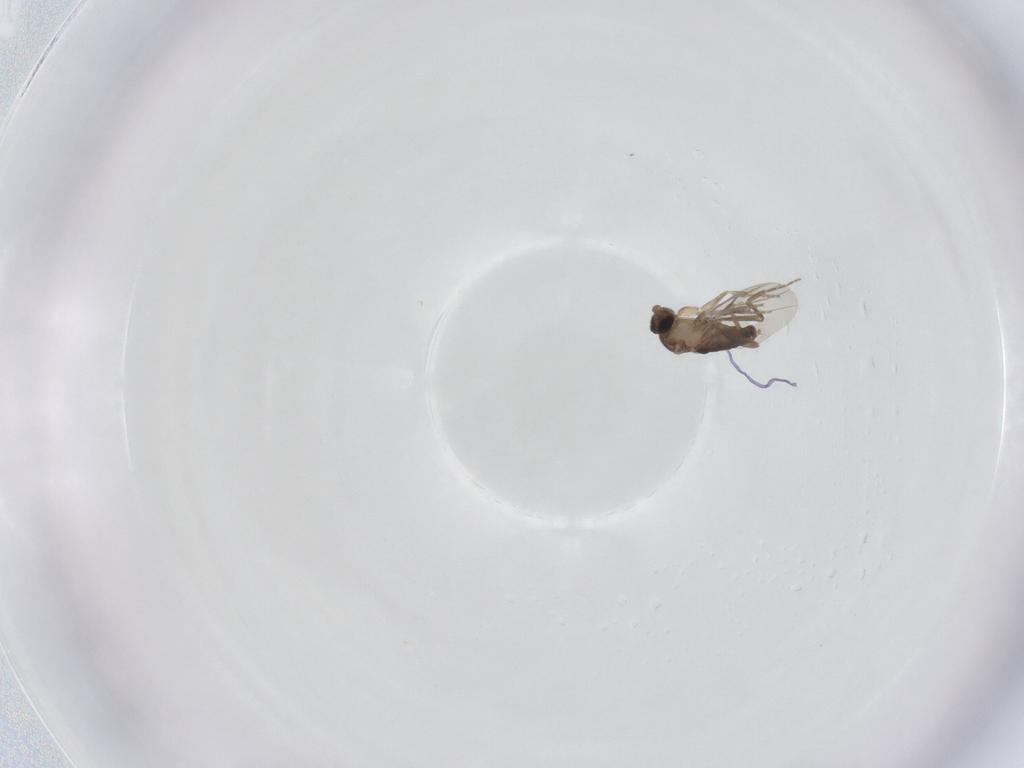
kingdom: Animalia
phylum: Arthropoda
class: Insecta
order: Diptera
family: Phoridae
